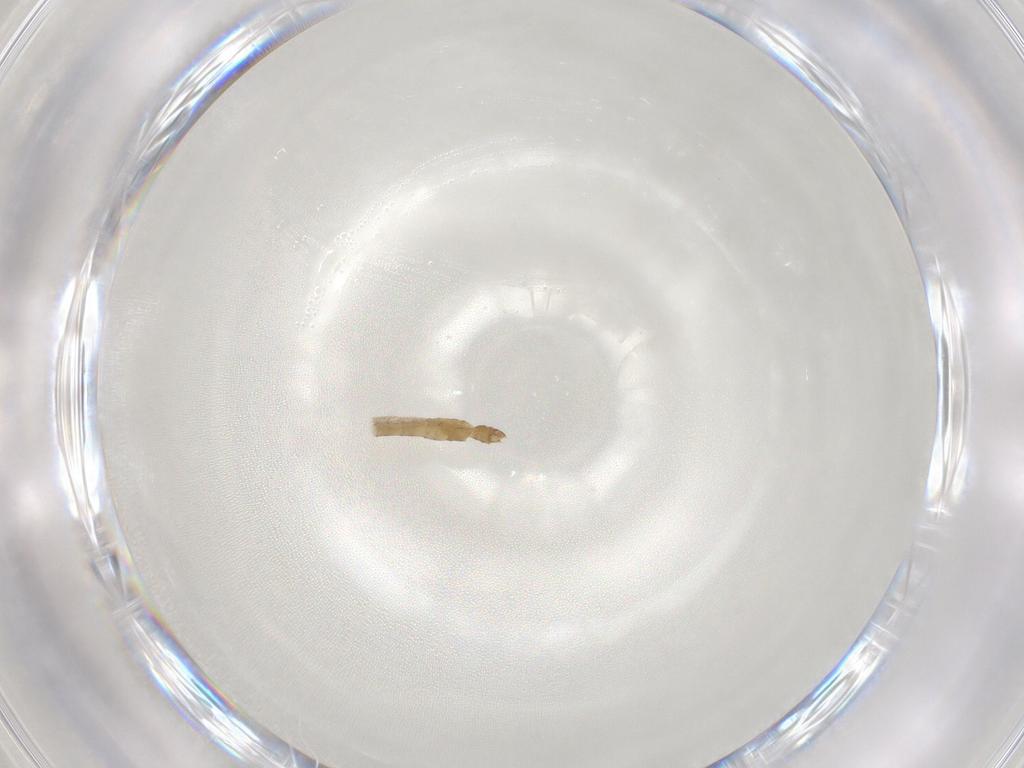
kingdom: Animalia
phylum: Arthropoda
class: Insecta
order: Diptera
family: Chironomidae
